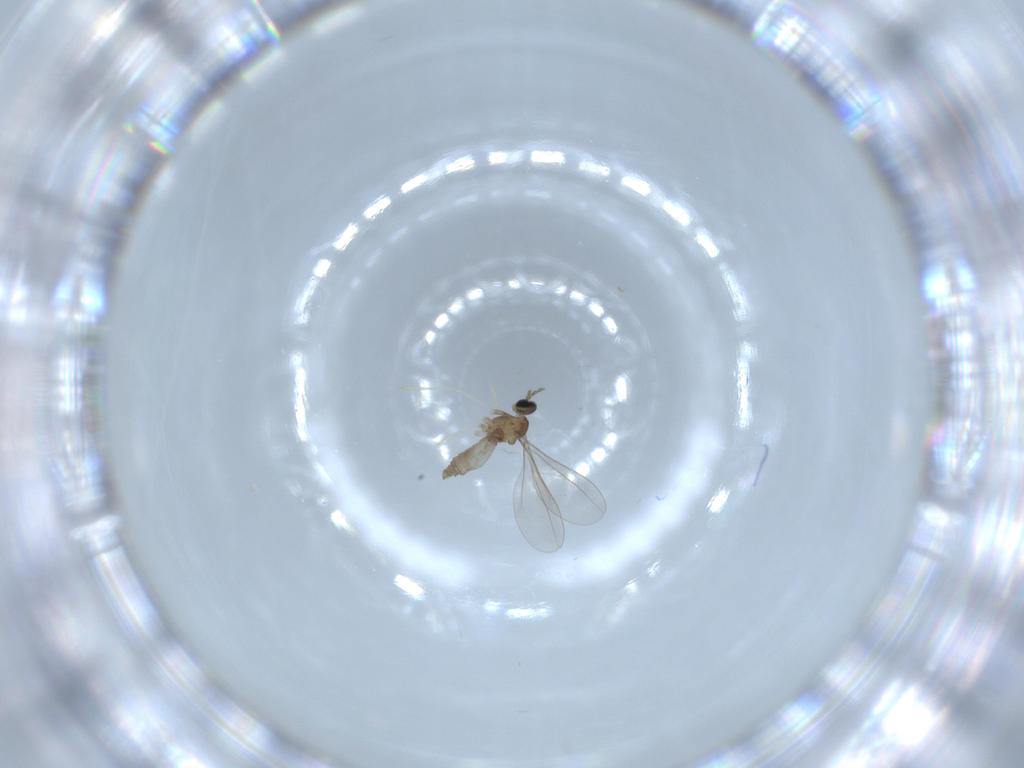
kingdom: Animalia
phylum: Arthropoda
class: Insecta
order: Diptera
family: Cecidomyiidae
